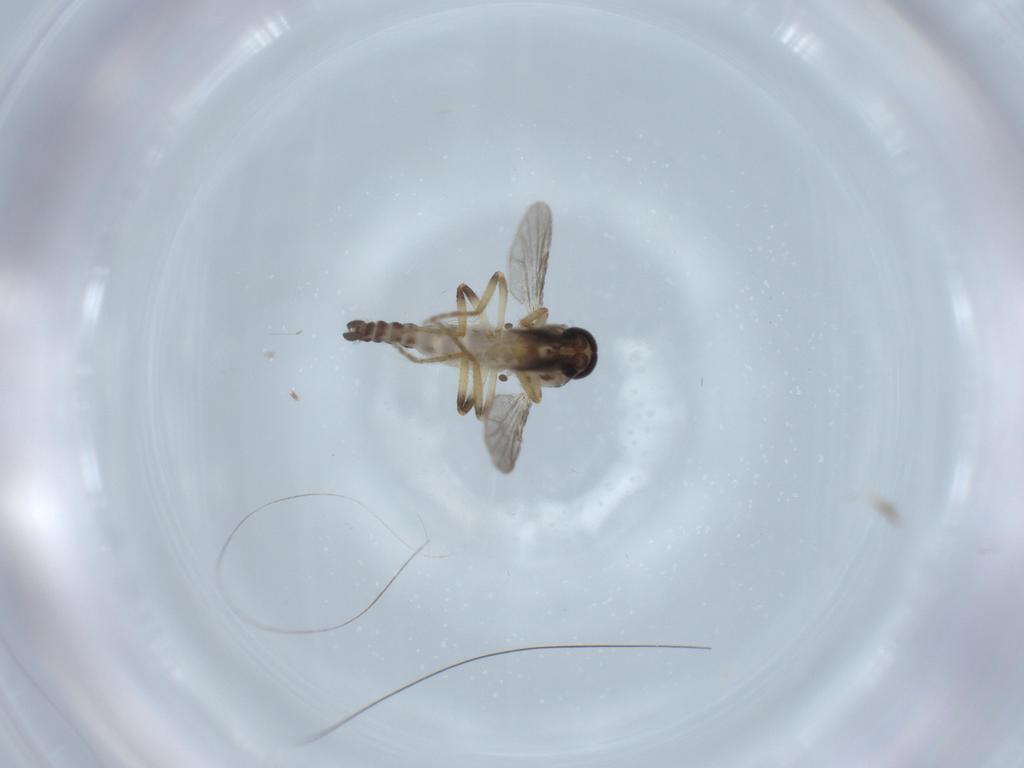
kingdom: Animalia
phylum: Arthropoda
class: Insecta
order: Diptera
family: Ceratopogonidae
